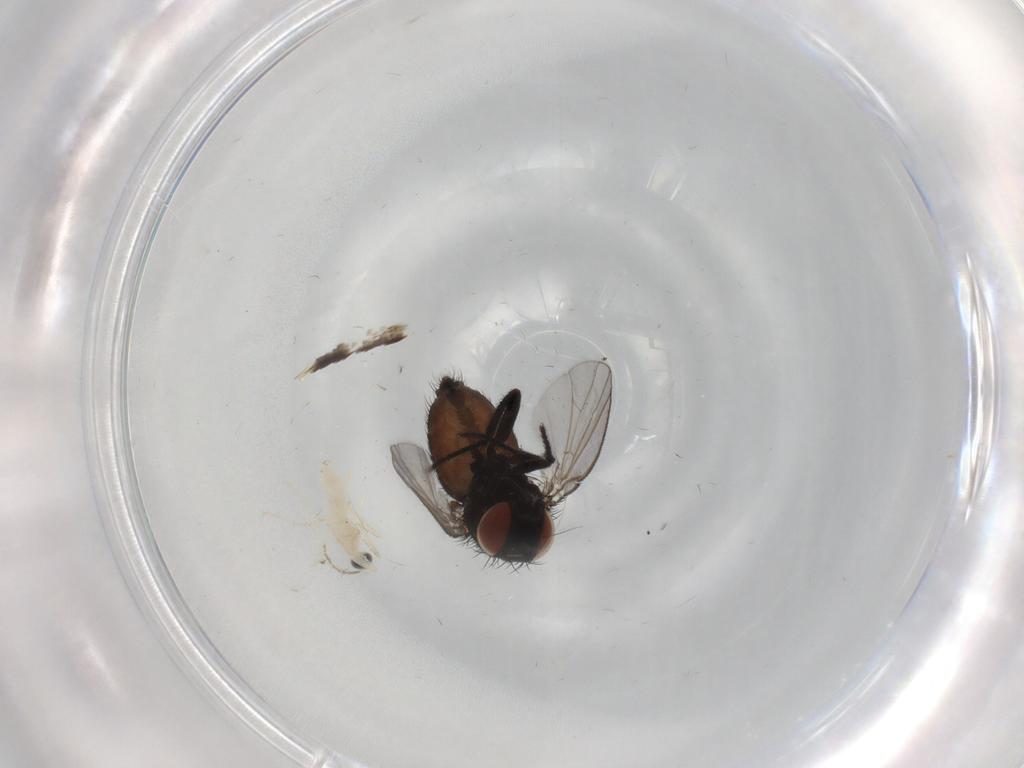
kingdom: Animalia
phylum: Arthropoda
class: Insecta
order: Diptera
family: Milichiidae
